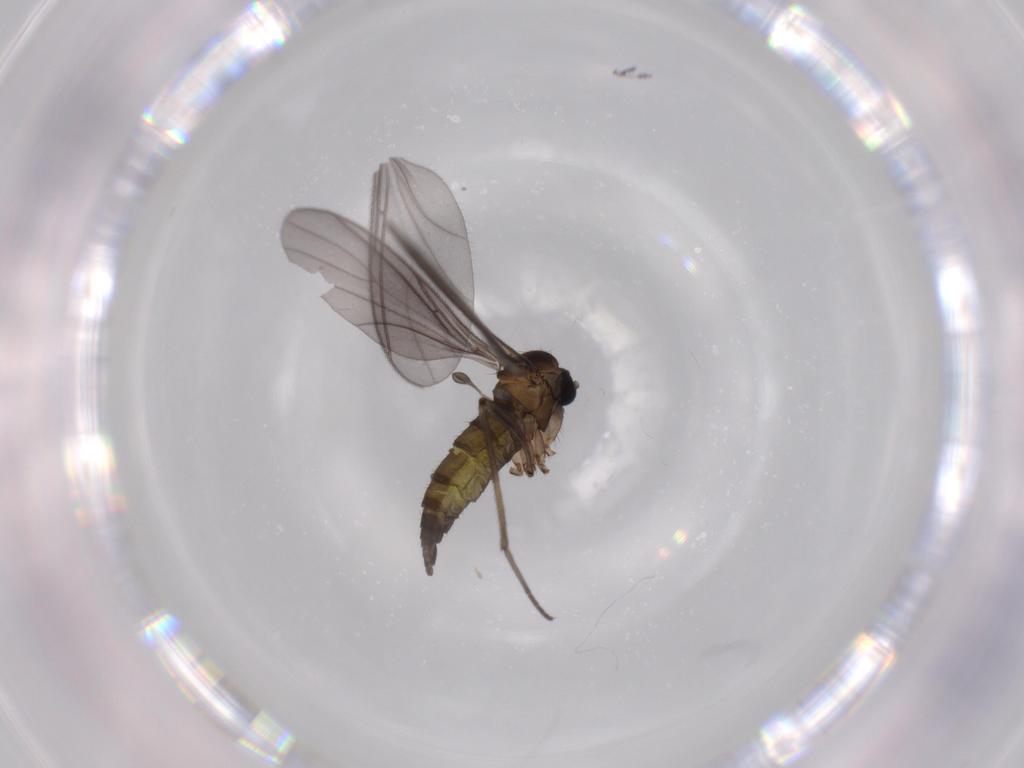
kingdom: Animalia
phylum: Arthropoda
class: Insecta
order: Diptera
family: Sciaridae
